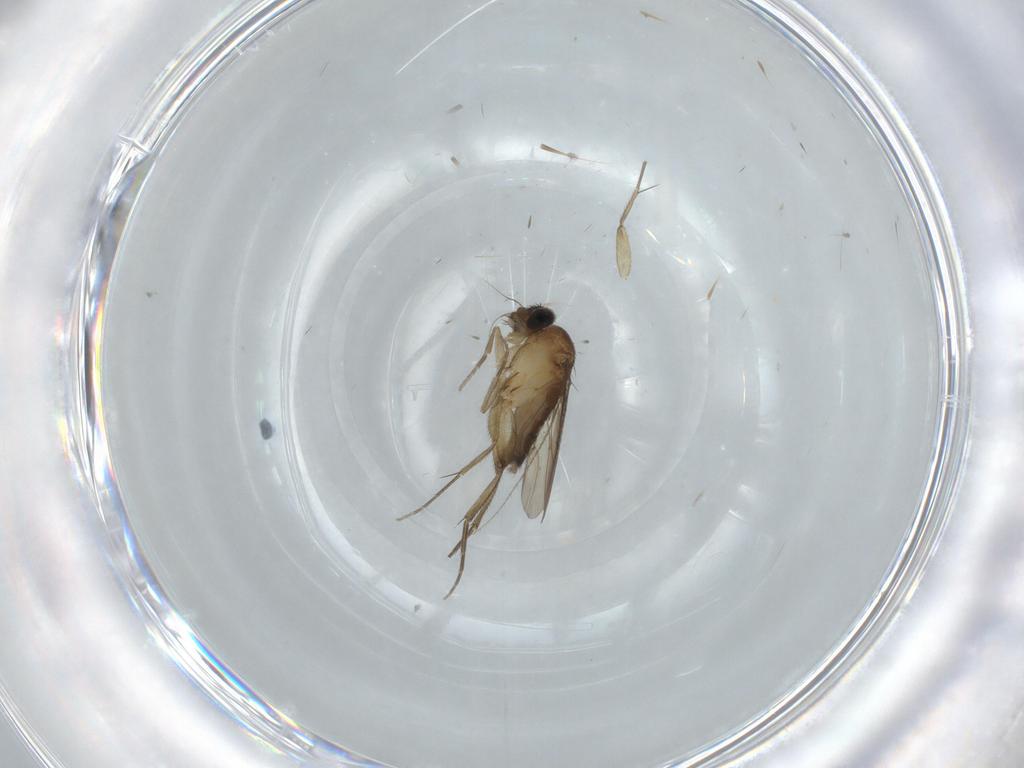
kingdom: Animalia
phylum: Arthropoda
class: Insecta
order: Diptera
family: Phoridae
